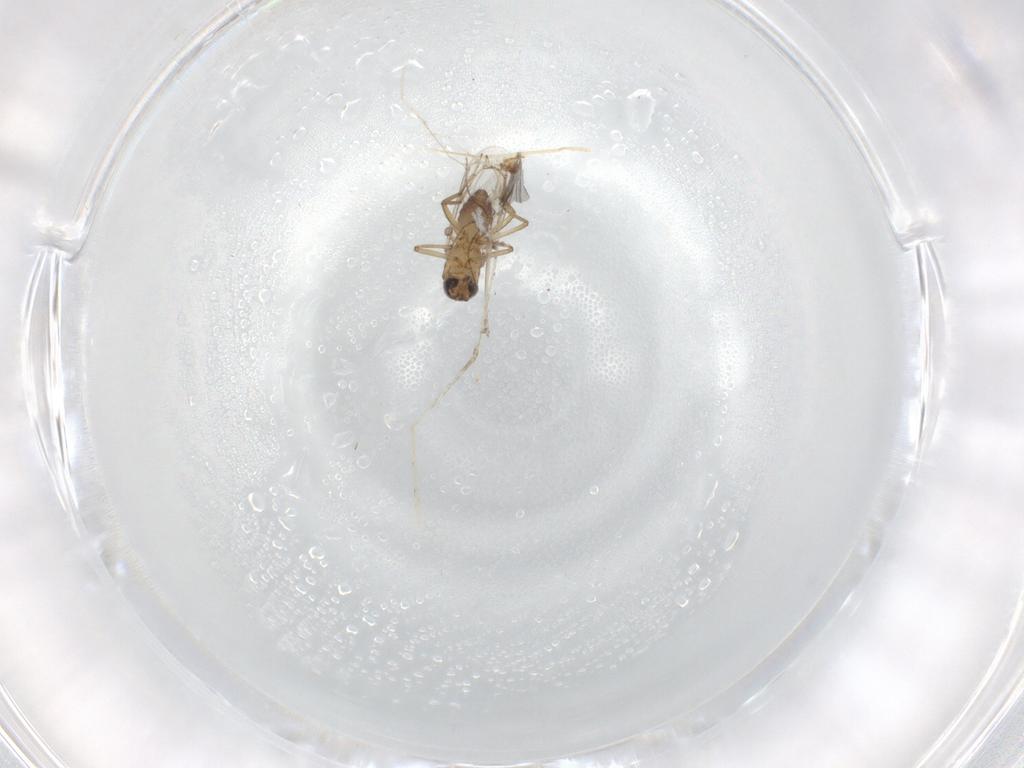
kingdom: Animalia
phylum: Arthropoda
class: Insecta
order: Diptera
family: Cecidomyiidae
